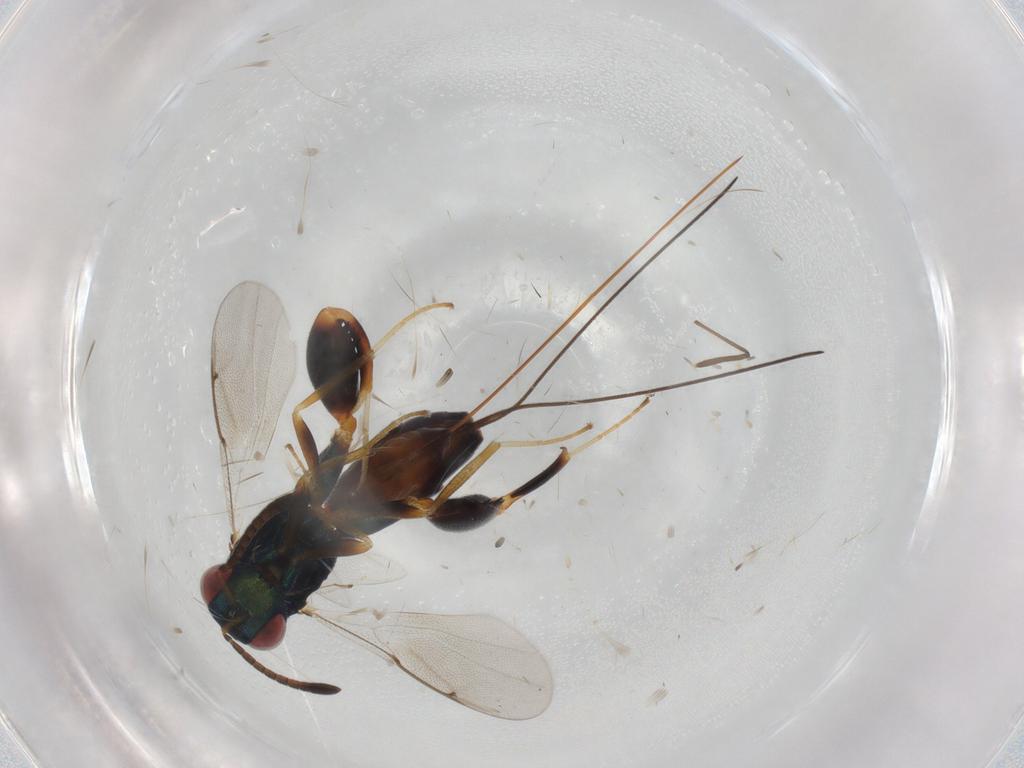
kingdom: Animalia
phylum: Arthropoda
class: Insecta
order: Hymenoptera
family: Torymidae
